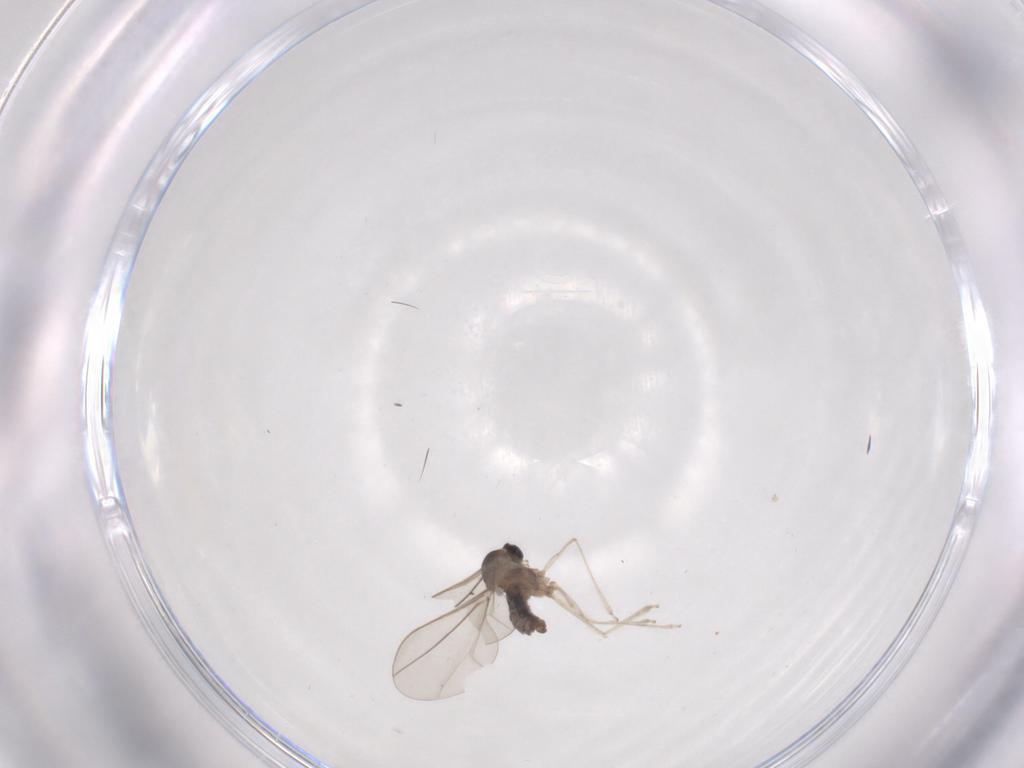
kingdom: Animalia
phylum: Arthropoda
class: Insecta
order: Diptera
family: Cecidomyiidae
